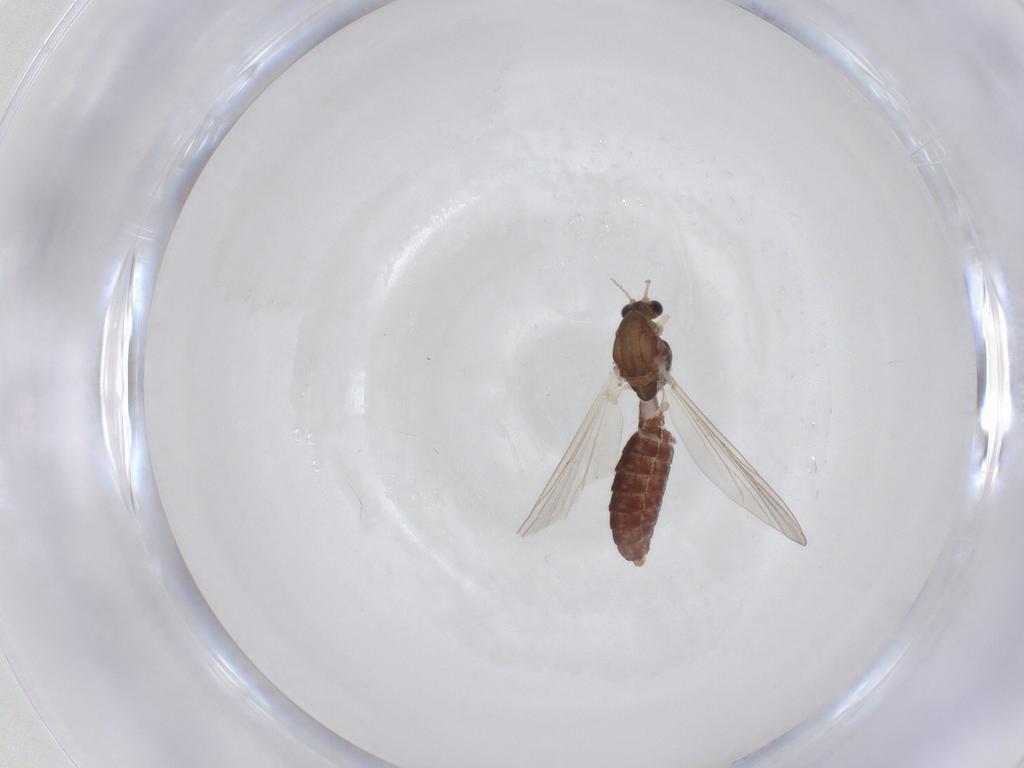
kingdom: Animalia
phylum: Arthropoda
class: Insecta
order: Diptera
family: Chironomidae
